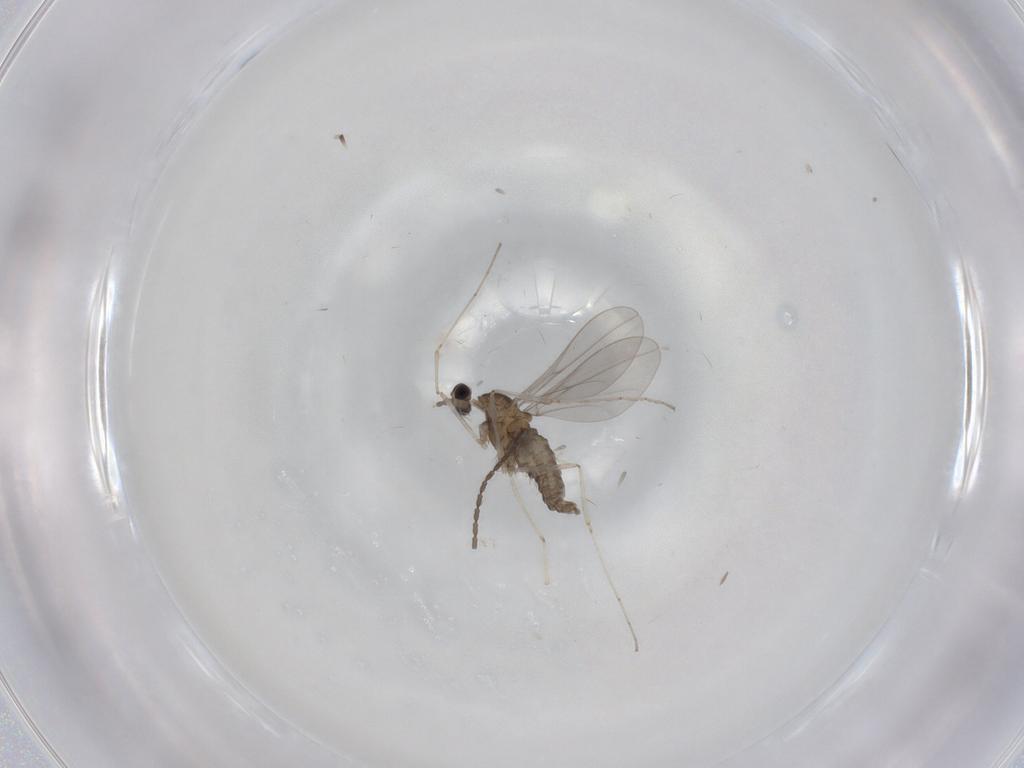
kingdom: Animalia
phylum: Arthropoda
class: Insecta
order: Diptera
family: Cecidomyiidae
